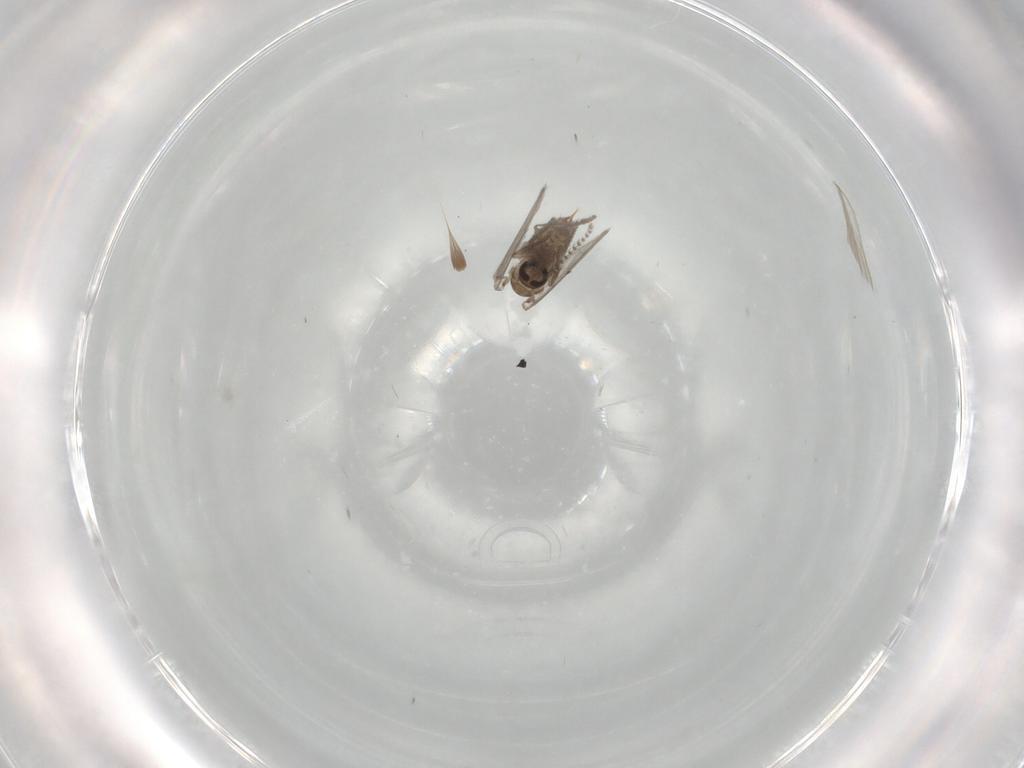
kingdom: Animalia
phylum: Arthropoda
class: Insecta
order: Diptera
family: Psychodidae
